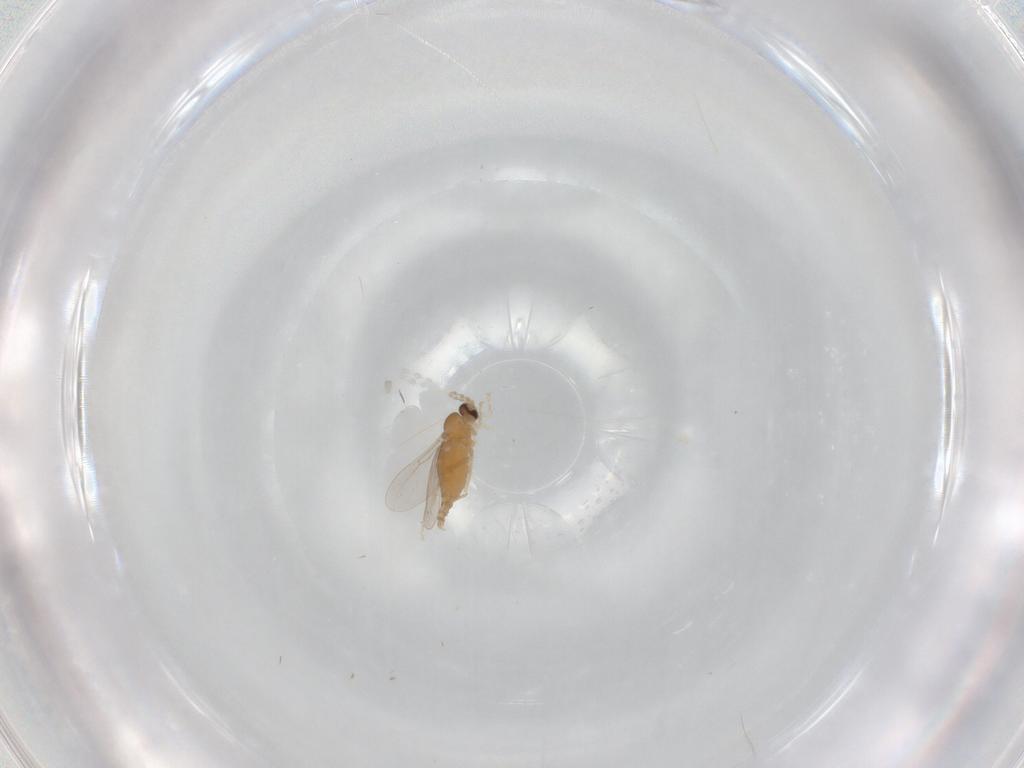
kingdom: Animalia
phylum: Arthropoda
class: Insecta
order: Diptera
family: Cecidomyiidae
